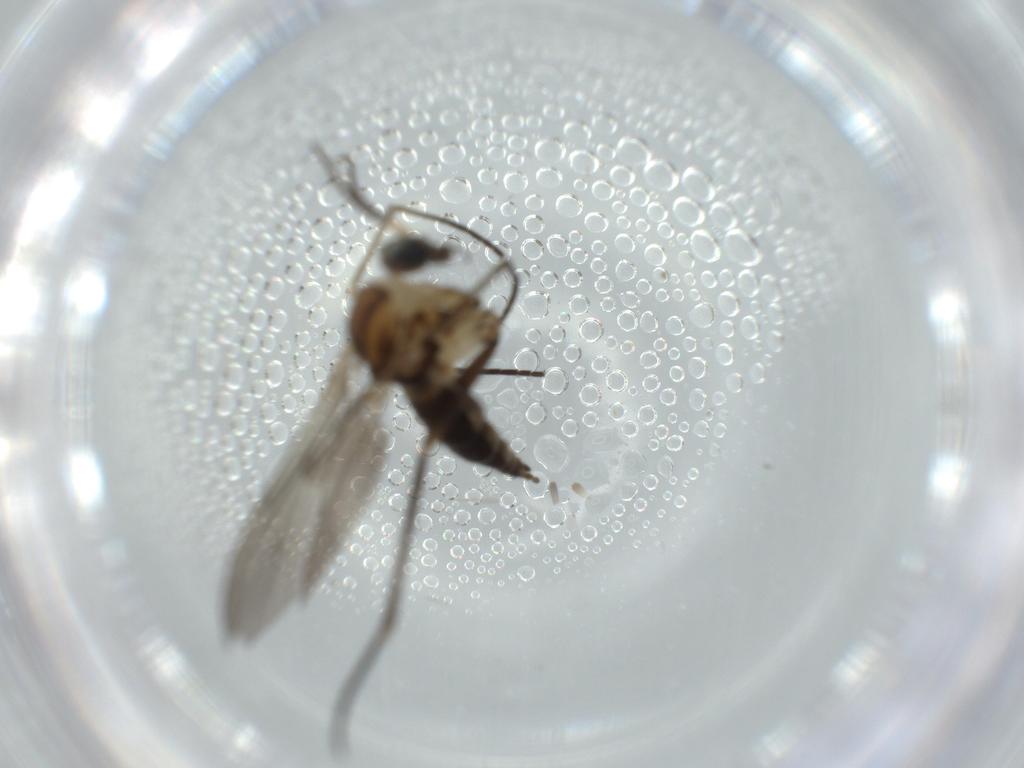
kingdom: Animalia
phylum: Arthropoda
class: Insecta
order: Diptera
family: Sciaridae
